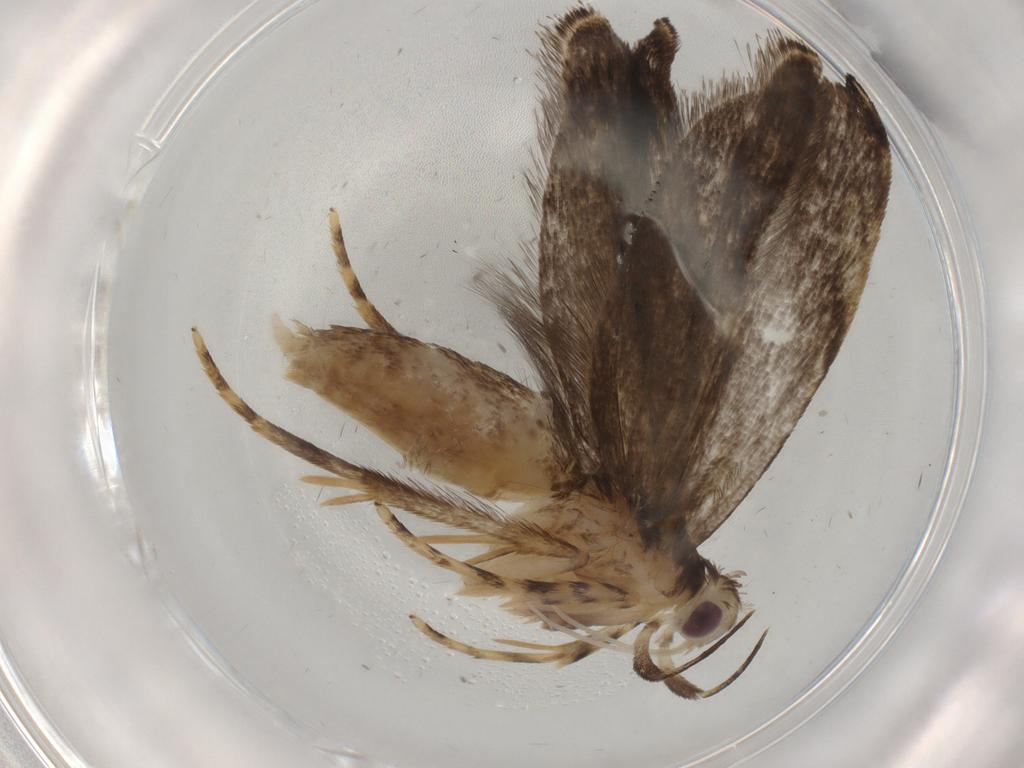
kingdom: Animalia
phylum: Arthropoda
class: Insecta
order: Lepidoptera
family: Gelechiidae
